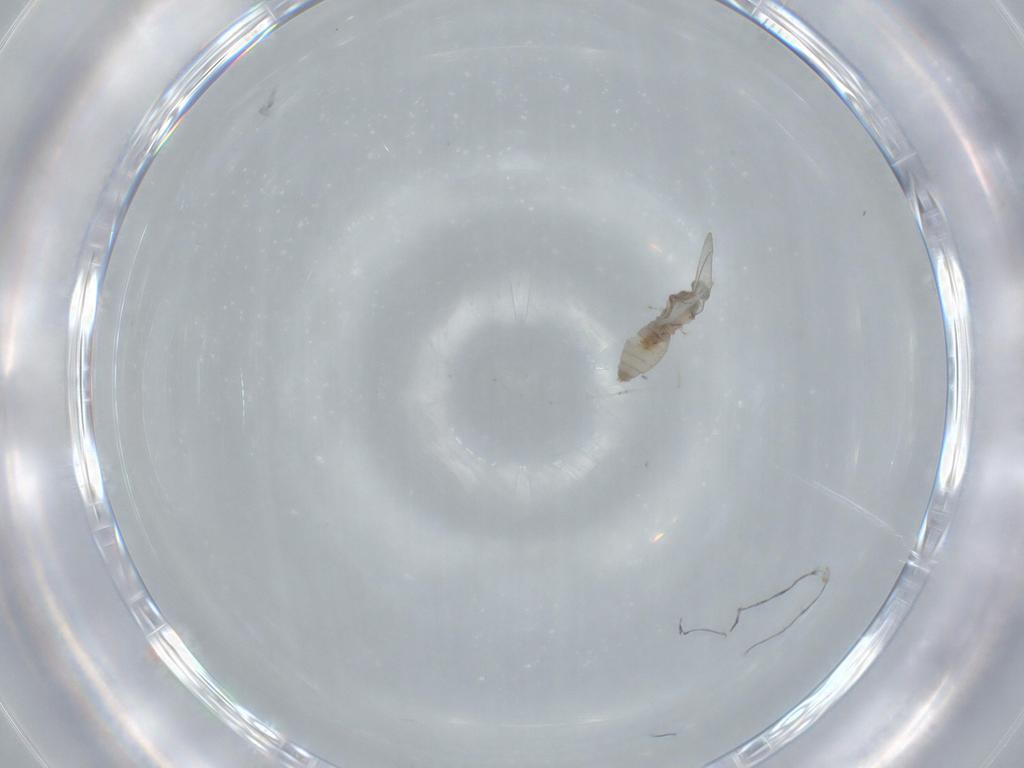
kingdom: Animalia
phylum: Arthropoda
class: Insecta
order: Diptera
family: Cecidomyiidae
